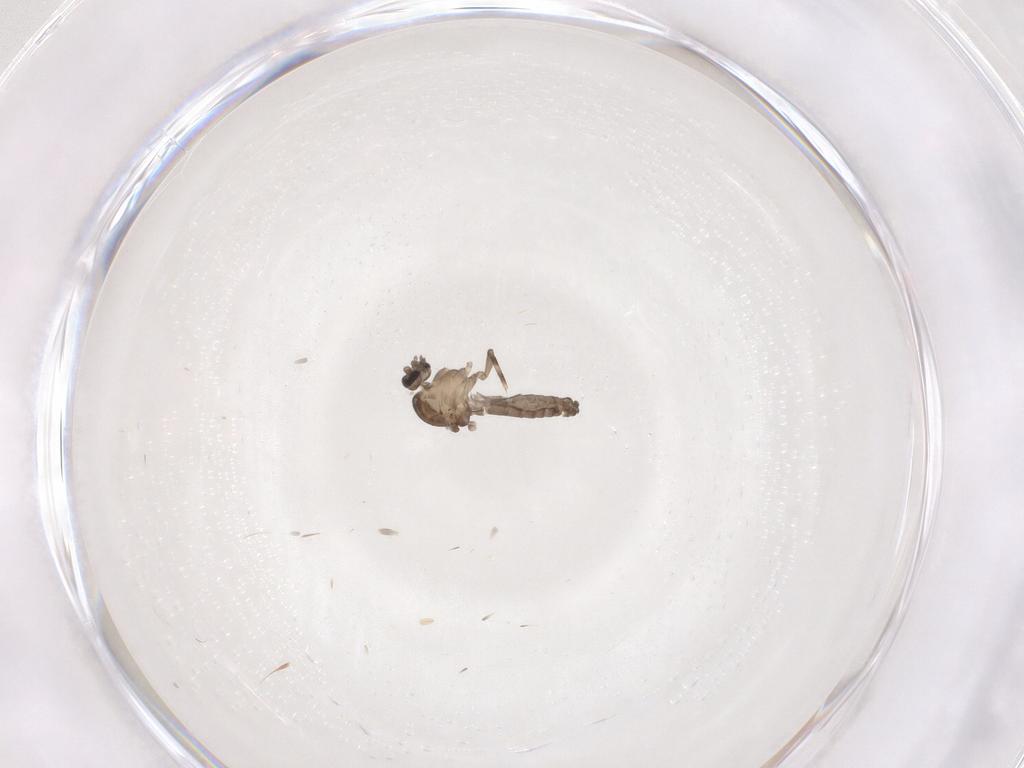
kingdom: Animalia
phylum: Arthropoda
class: Insecta
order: Diptera
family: Ceratopogonidae
